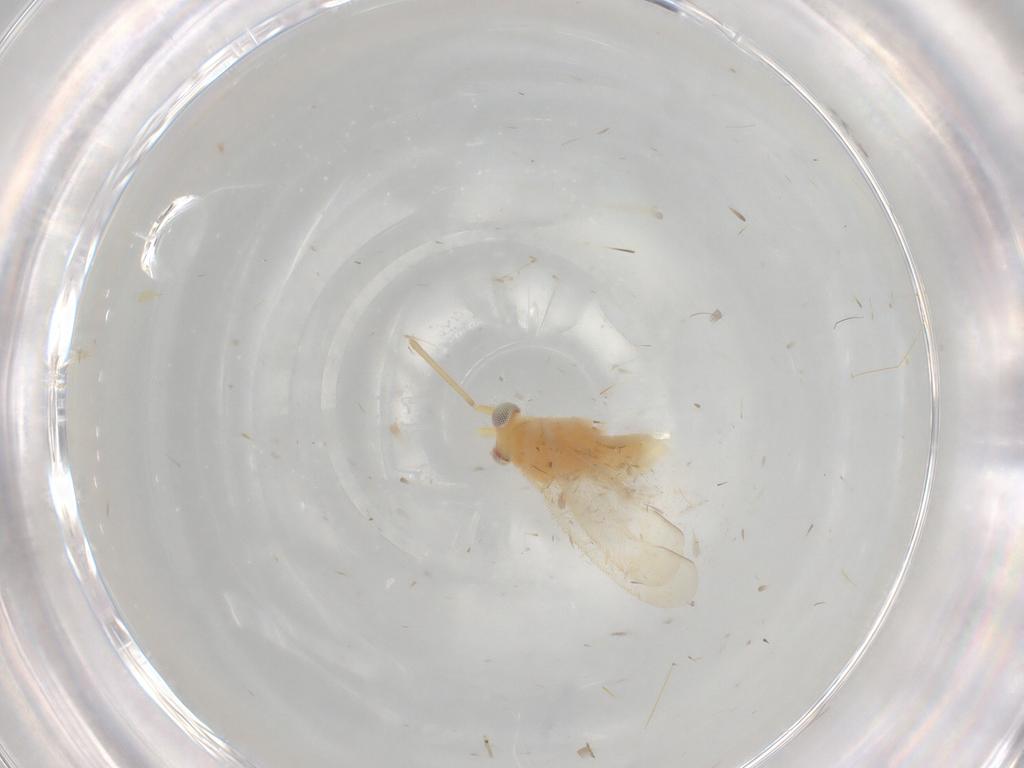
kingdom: Animalia
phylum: Arthropoda
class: Insecta
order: Hemiptera
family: Miridae
